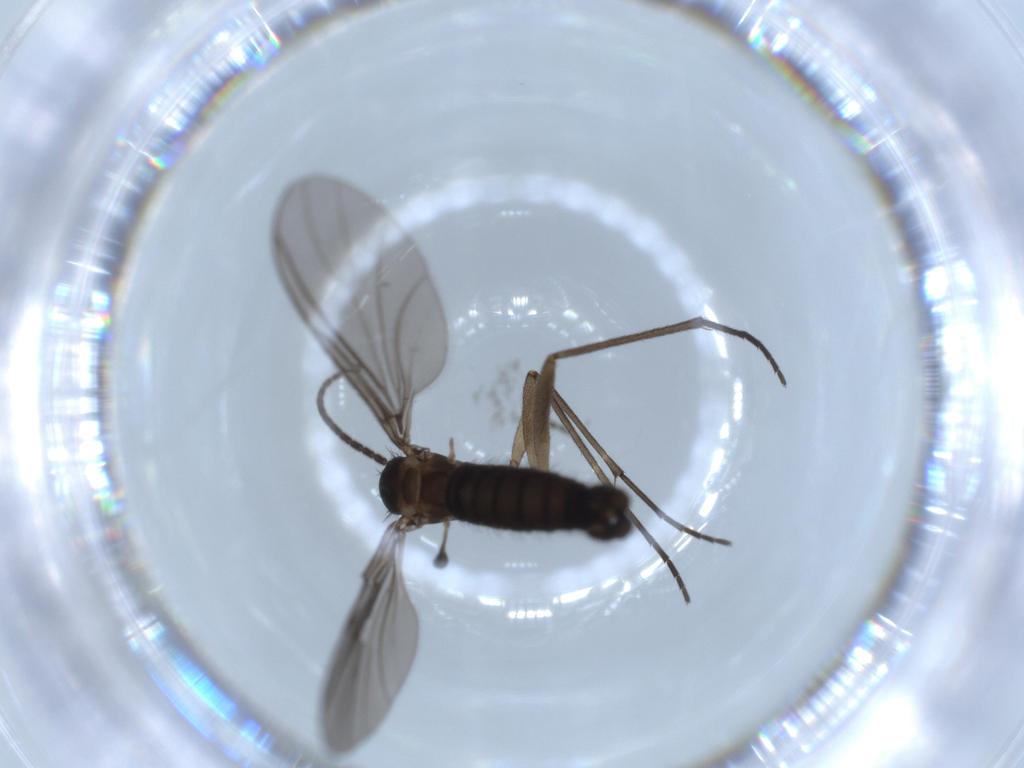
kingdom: Animalia
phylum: Arthropoda
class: Insecta
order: Diptera
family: Sciaridae
